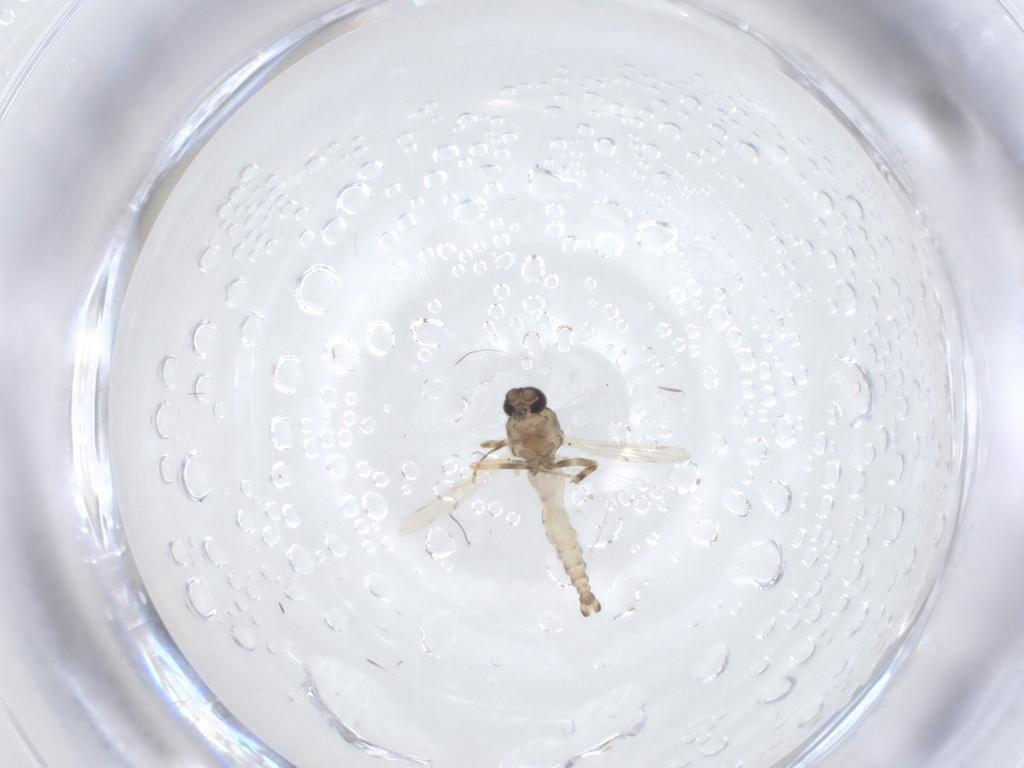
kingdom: Animalia
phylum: Arthropoda
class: Insecta
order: Diptera
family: Ceratopogonidae
